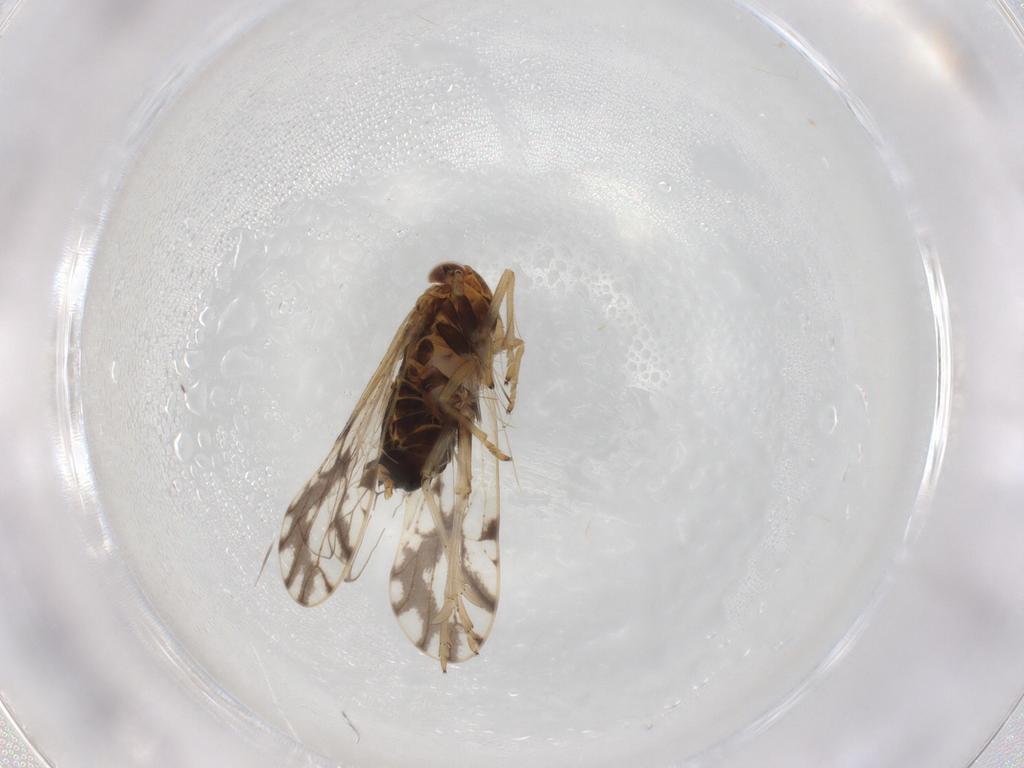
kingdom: Animalia
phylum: Arthropoda
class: Insecta
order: Hemiptera
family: Delphacidae
